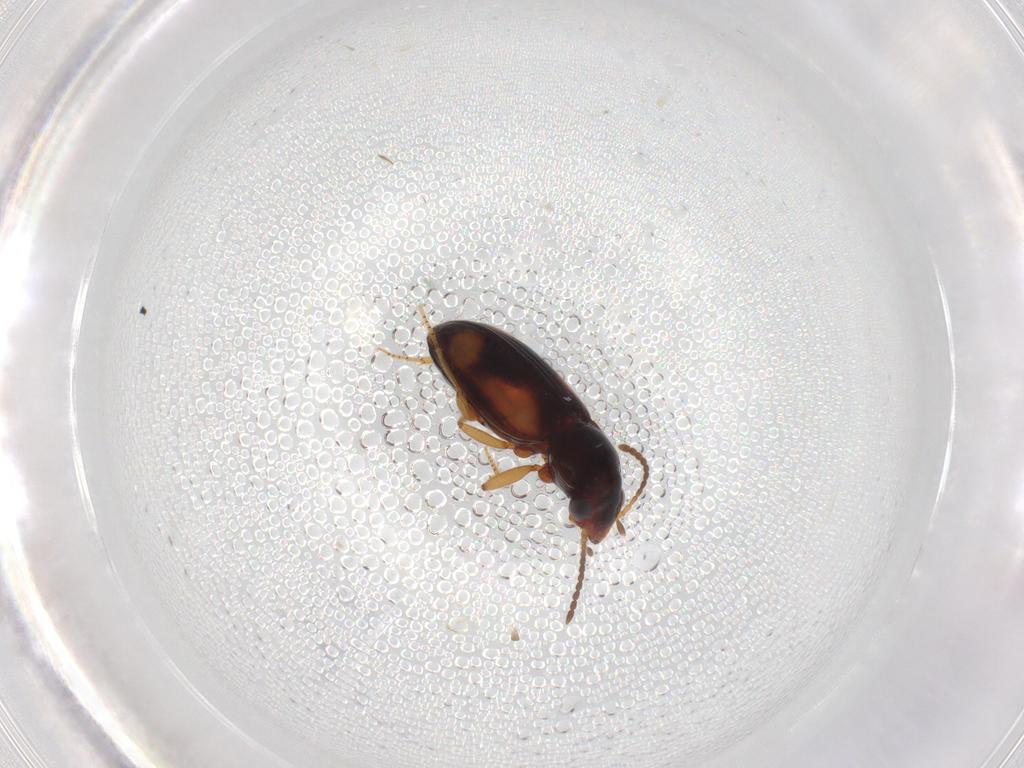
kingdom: Animalia
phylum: Arthropoda
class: Insecta
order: Coleoptera
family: Carabidae
